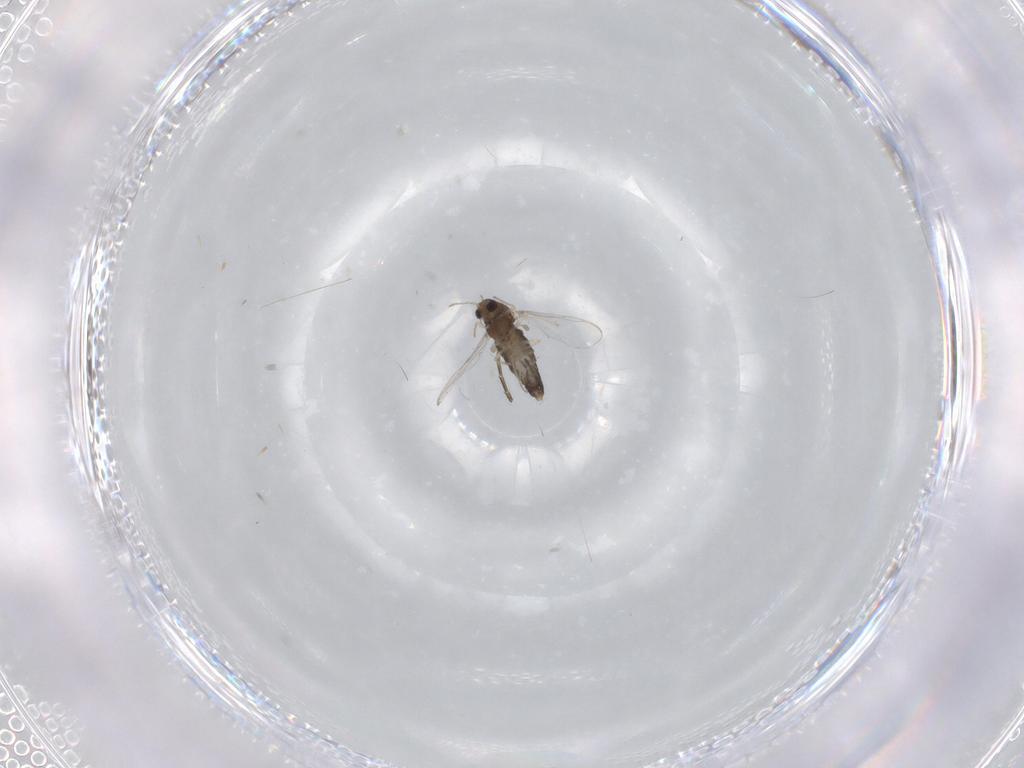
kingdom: Animalia
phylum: Arthropoda
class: Insecta
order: Diptera
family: Chironomidae
